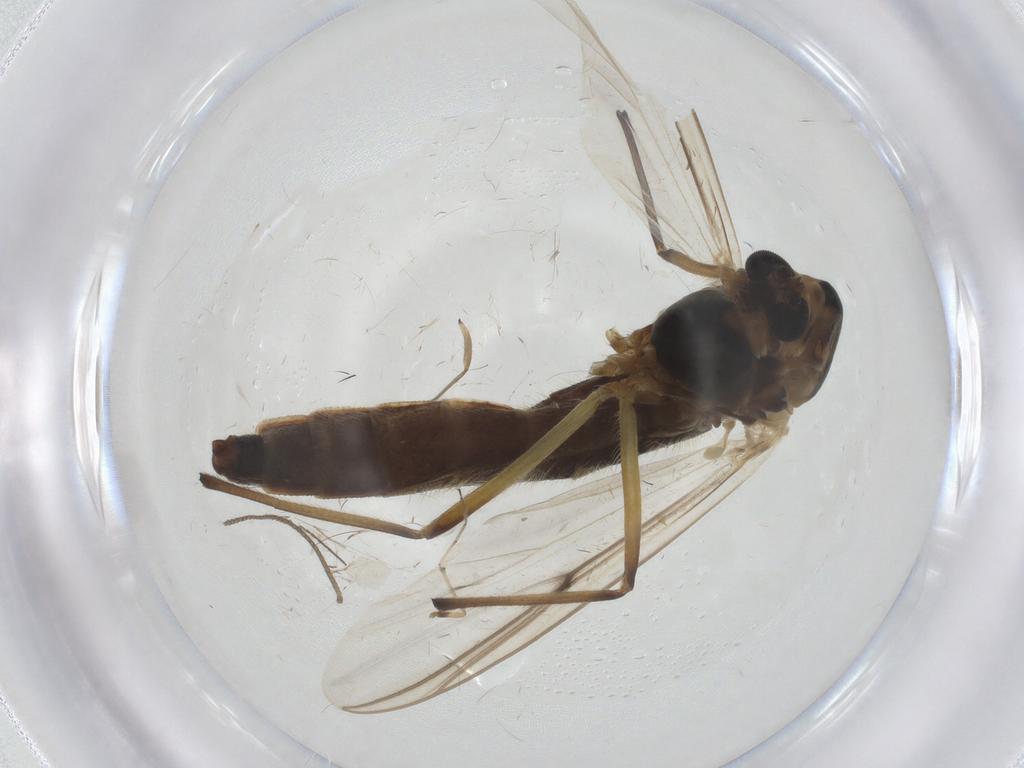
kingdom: Animalia
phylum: Arthropoda
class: Insecta
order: Diptera
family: Chironomidae
